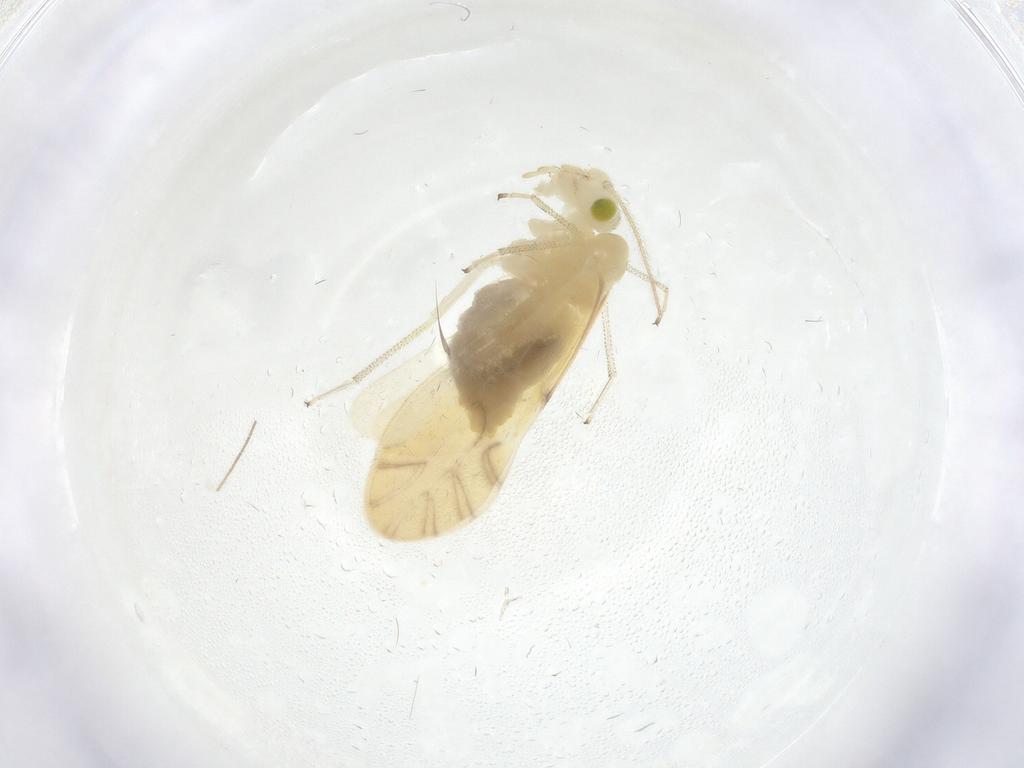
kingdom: Animalia
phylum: Arthropoda
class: Insecta
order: Psocodea
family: Caeciliusidae
